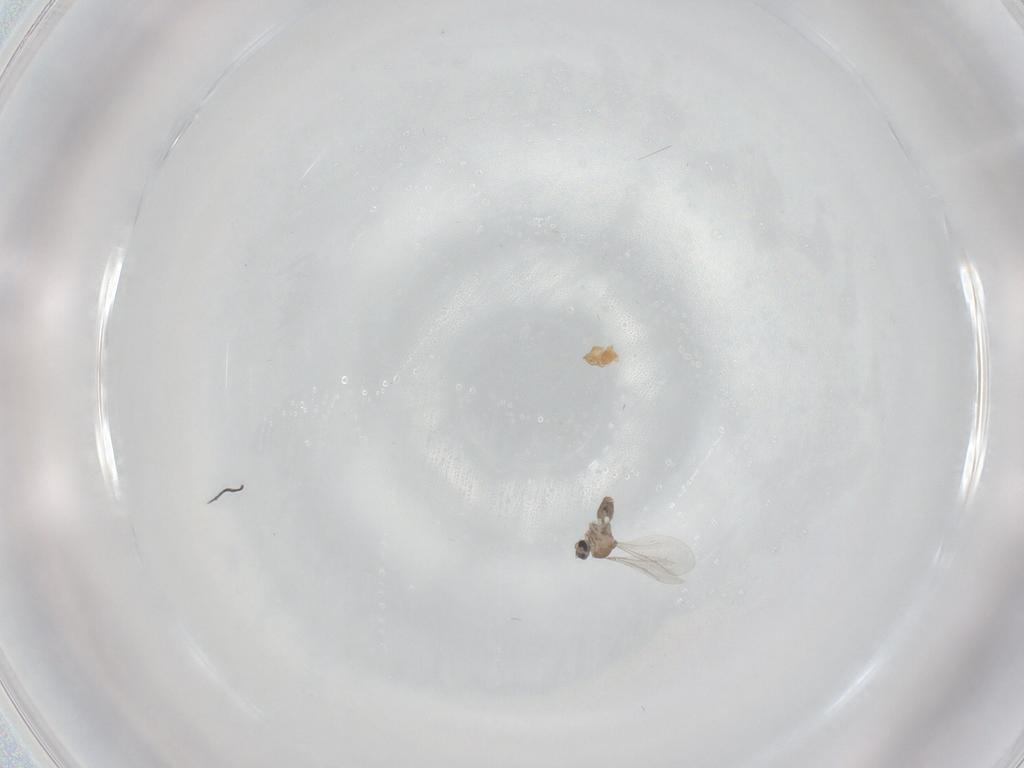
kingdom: Animalia
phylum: Arthropoda
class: Insecta
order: Diptera
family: Cecidomyiidae
